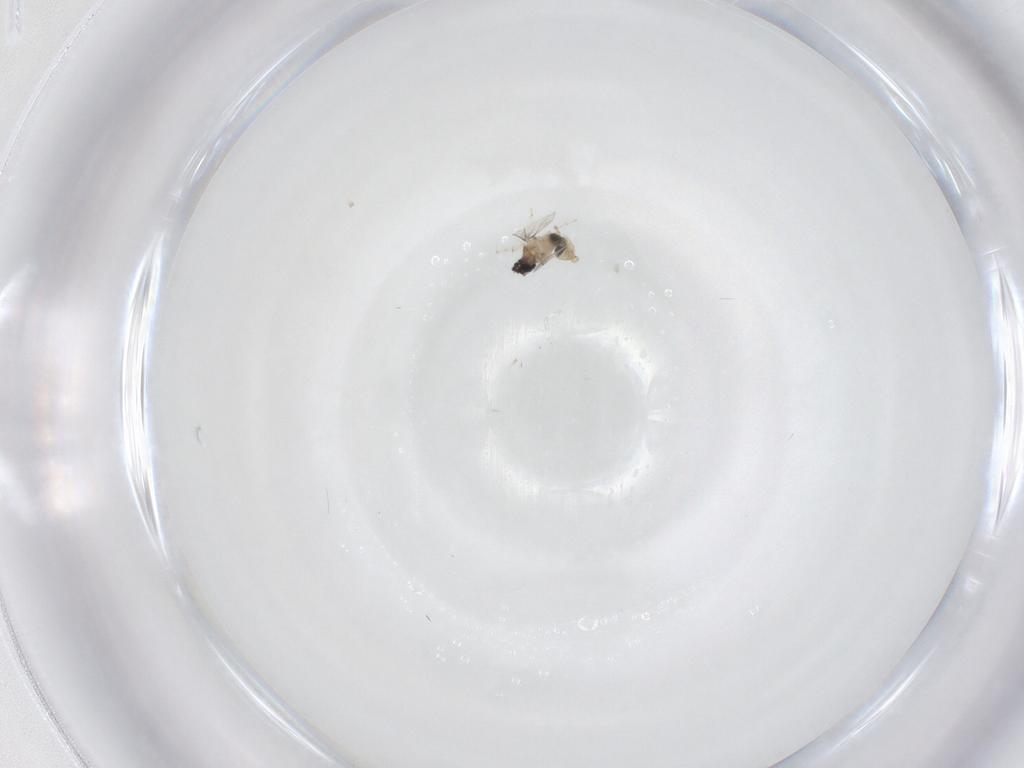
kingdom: Animalia
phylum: Arthropoda
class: Insecta
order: Diptera
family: Cecidomyiidae
